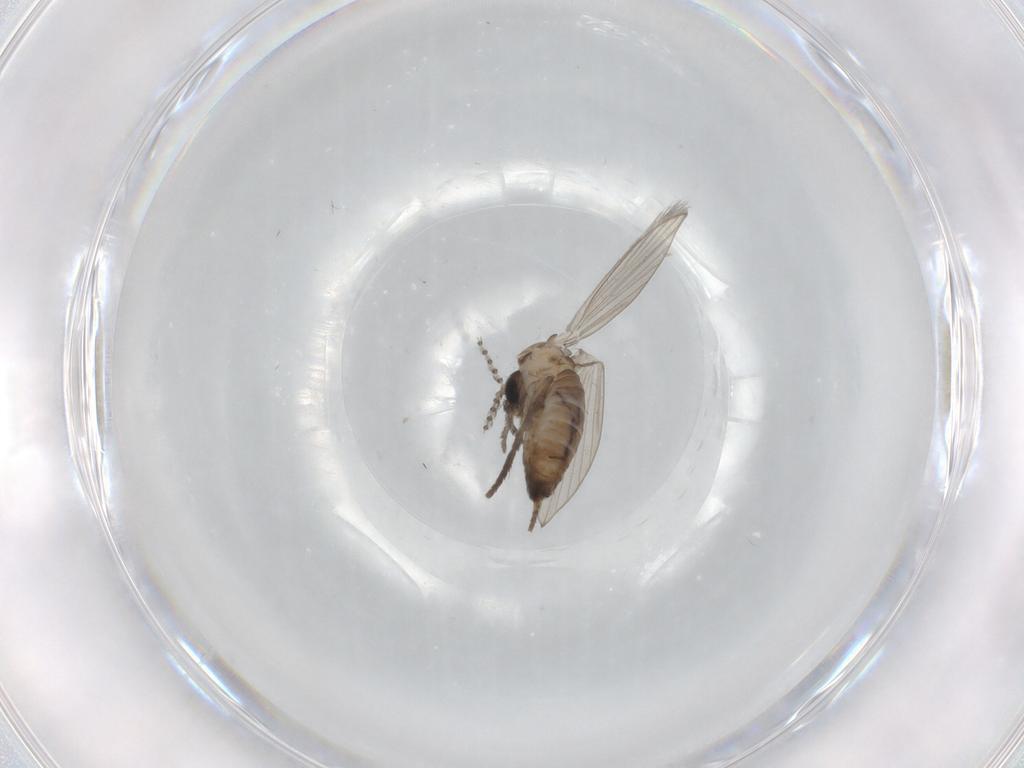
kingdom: Animalia
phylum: Arthropoda
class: Insecta
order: Diptera
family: Psychodidae
